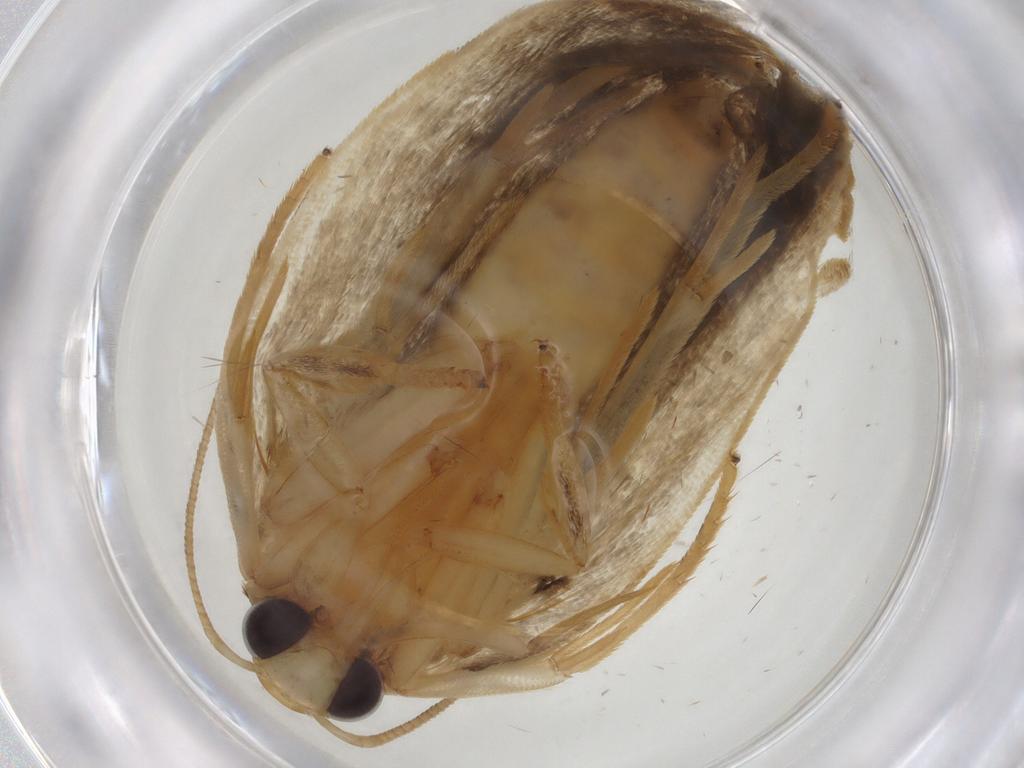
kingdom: Animalia
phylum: Arthropoda
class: Insecta
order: Lepidoptera
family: Depressariidae
